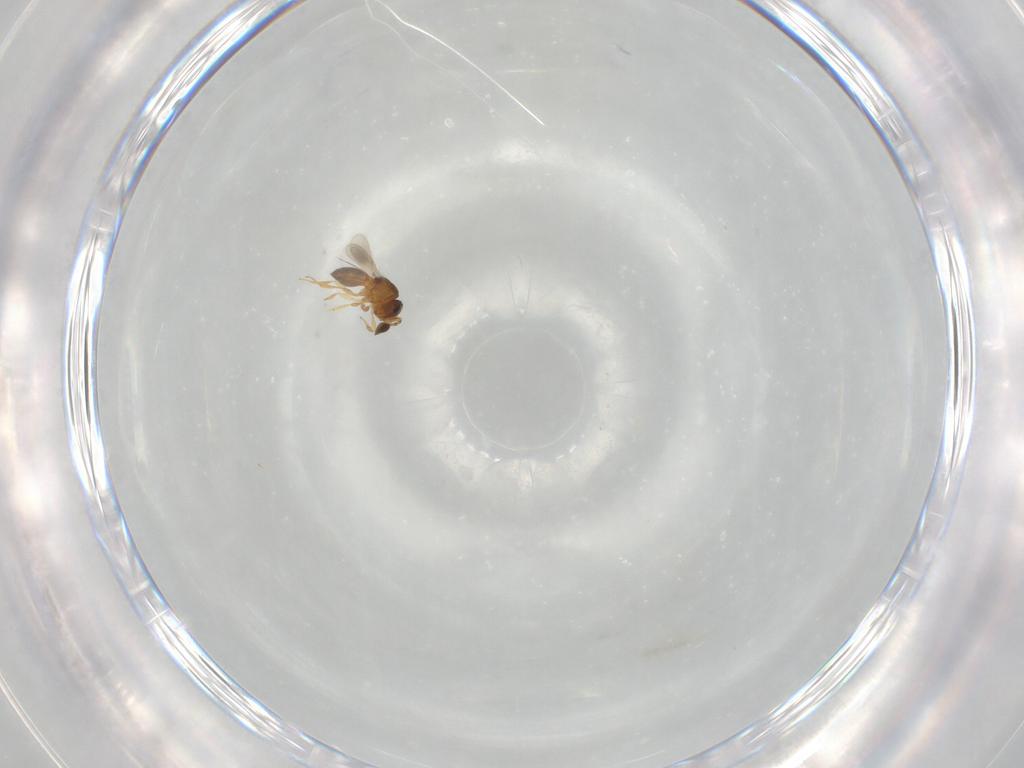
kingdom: Animalia
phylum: Arthropoda
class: Insecta
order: Hymenoptera
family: Scelionidae
